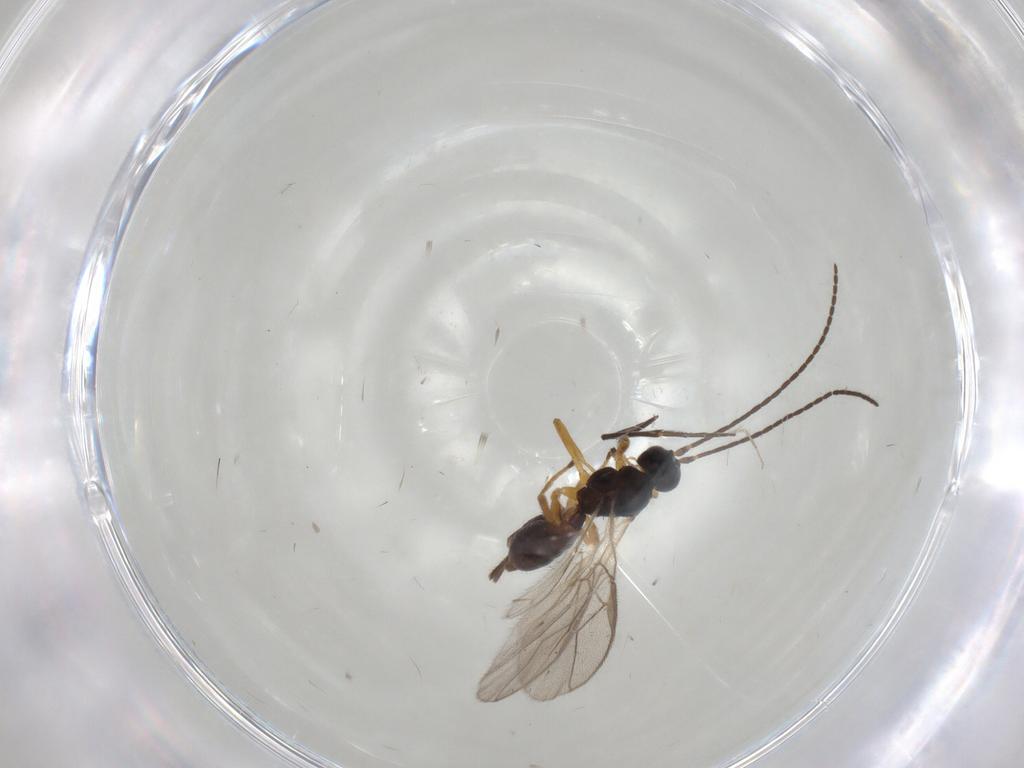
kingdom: Animalia
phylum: Arthropoda
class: Insecta
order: Hymenoptera
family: Braconidae
